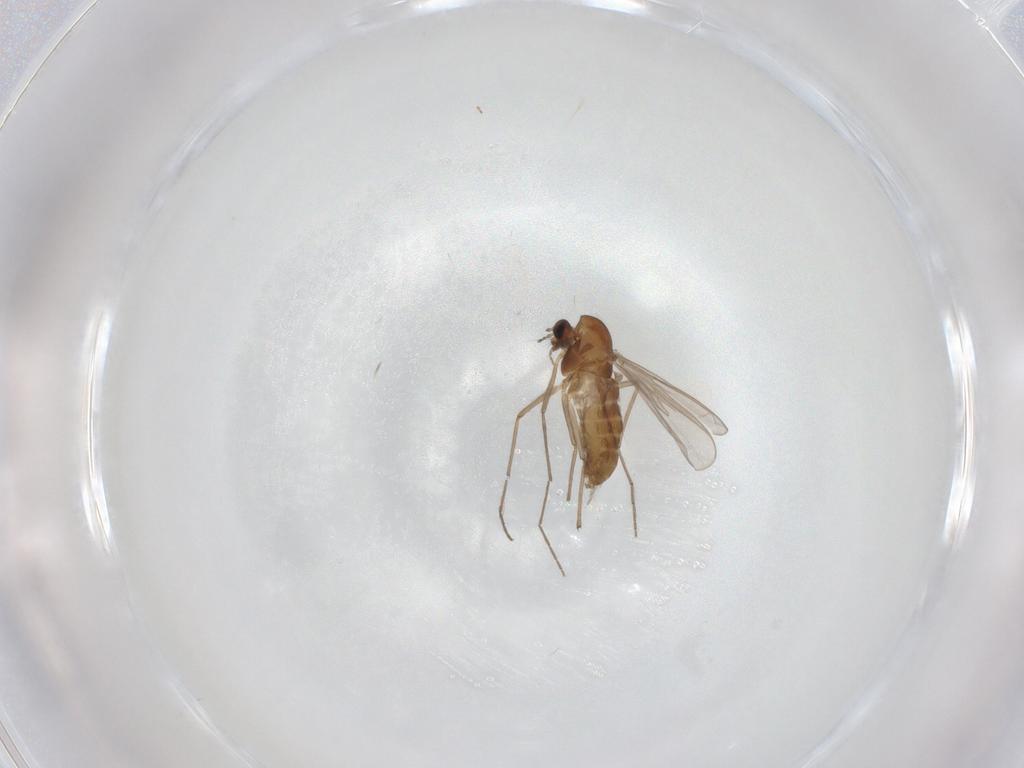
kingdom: Animalia
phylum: Arthropoda
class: Insecta
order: Diptera
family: Chironomidae
